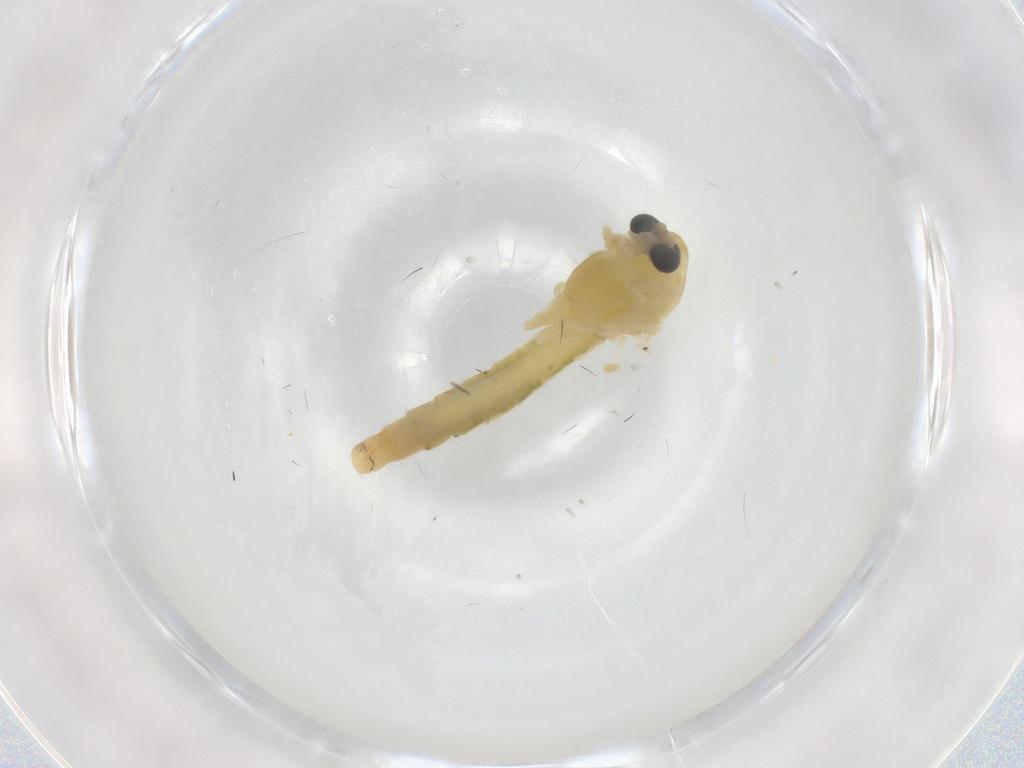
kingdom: Animalia
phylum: Arthropoda
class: Insecta
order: Diptera
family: Chironomidae
